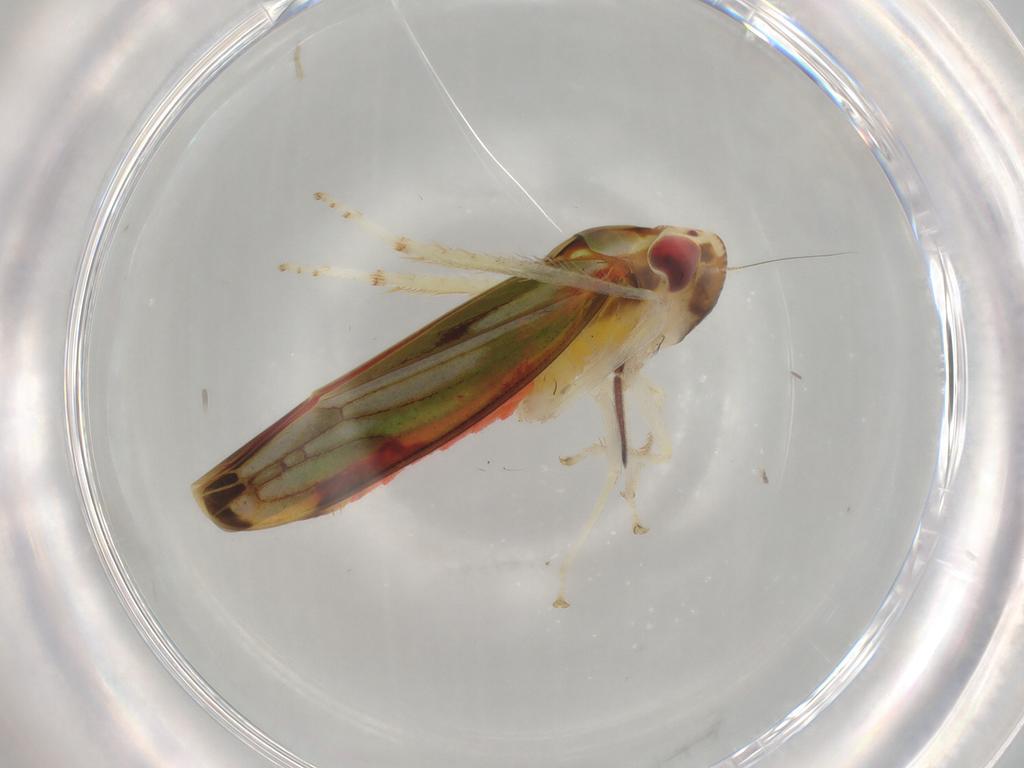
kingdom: Animalia
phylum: Arthropoda
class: Insecta
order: Hemiptera
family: Cicadellidae
